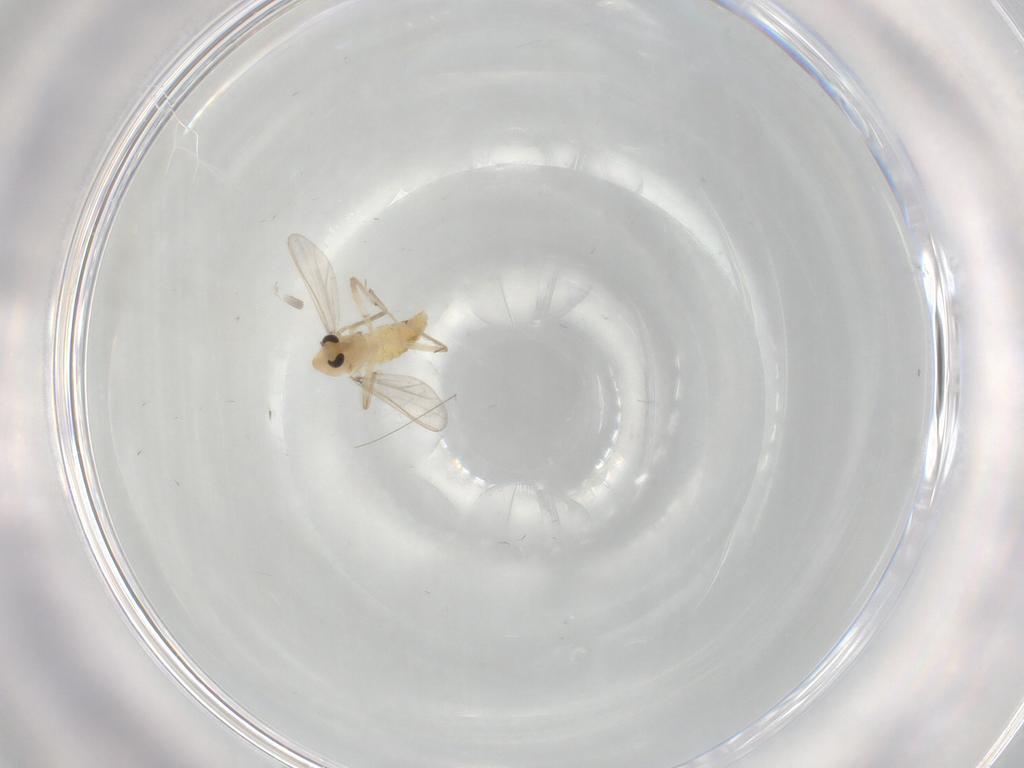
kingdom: Animalia
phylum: Arthropoda
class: Insecta
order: Diptera
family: Chironomidae
